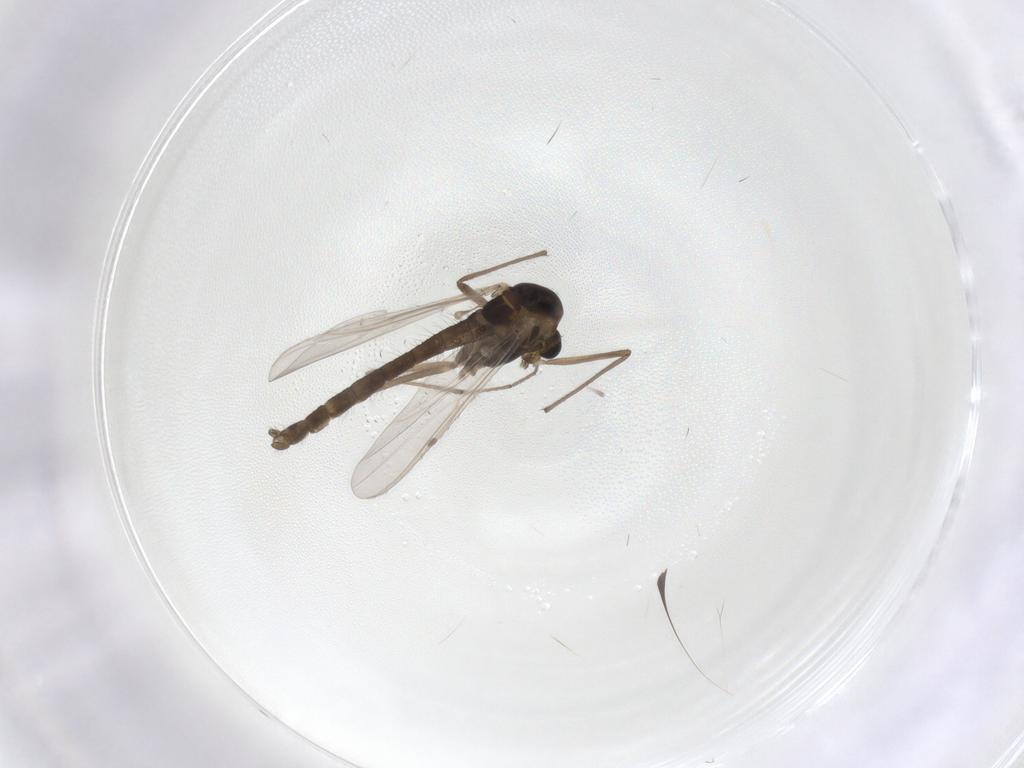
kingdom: Animalia
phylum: Arthropoda
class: Insecta
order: Diptera
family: Chironomidae
